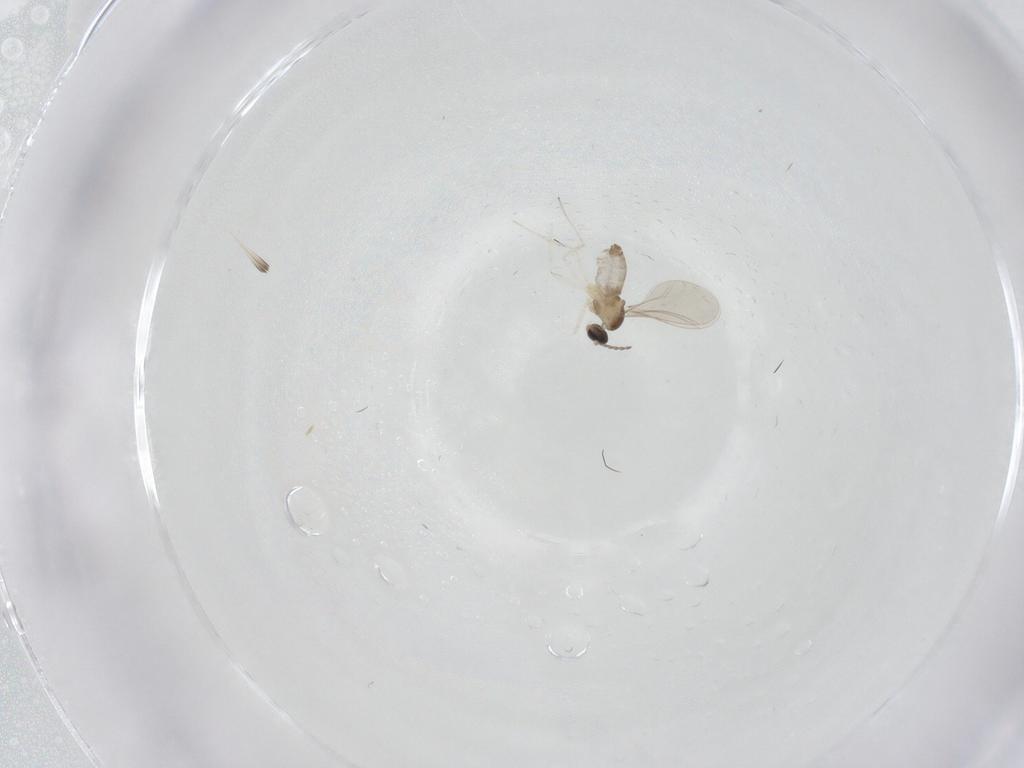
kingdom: Animalia
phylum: Arthropoda
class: Insecta
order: Diptera
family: Cecidomyiidae
